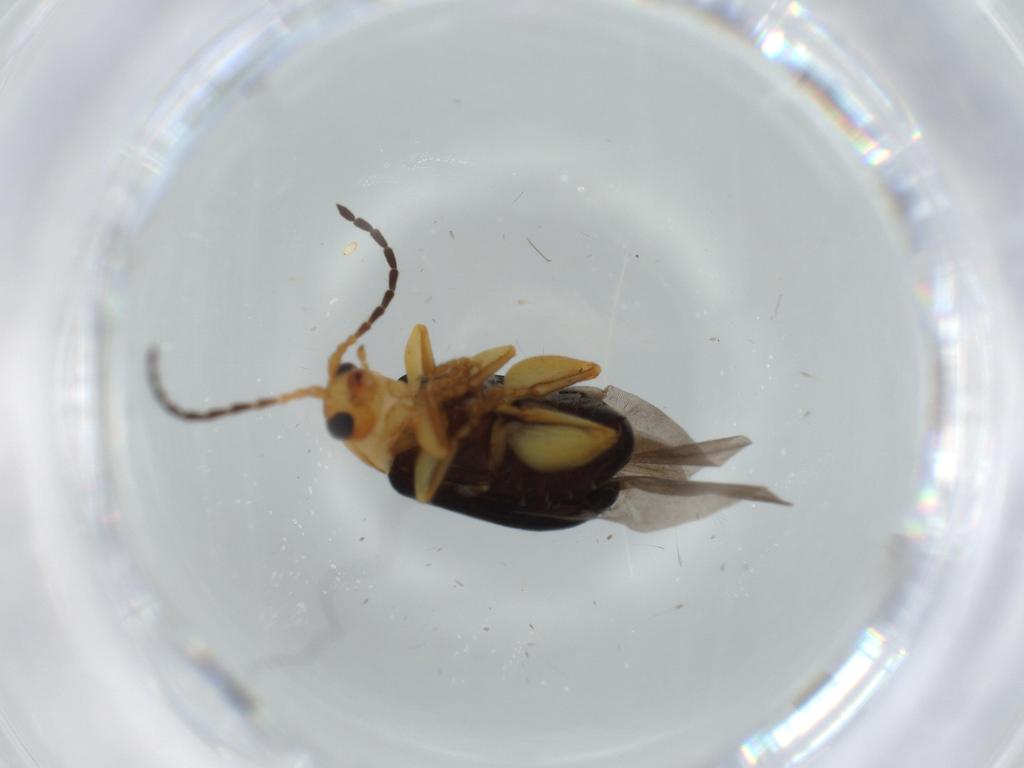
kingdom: Animalia
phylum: Arthropoda
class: Insecta
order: Coleoptera
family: Chrysomelidae
